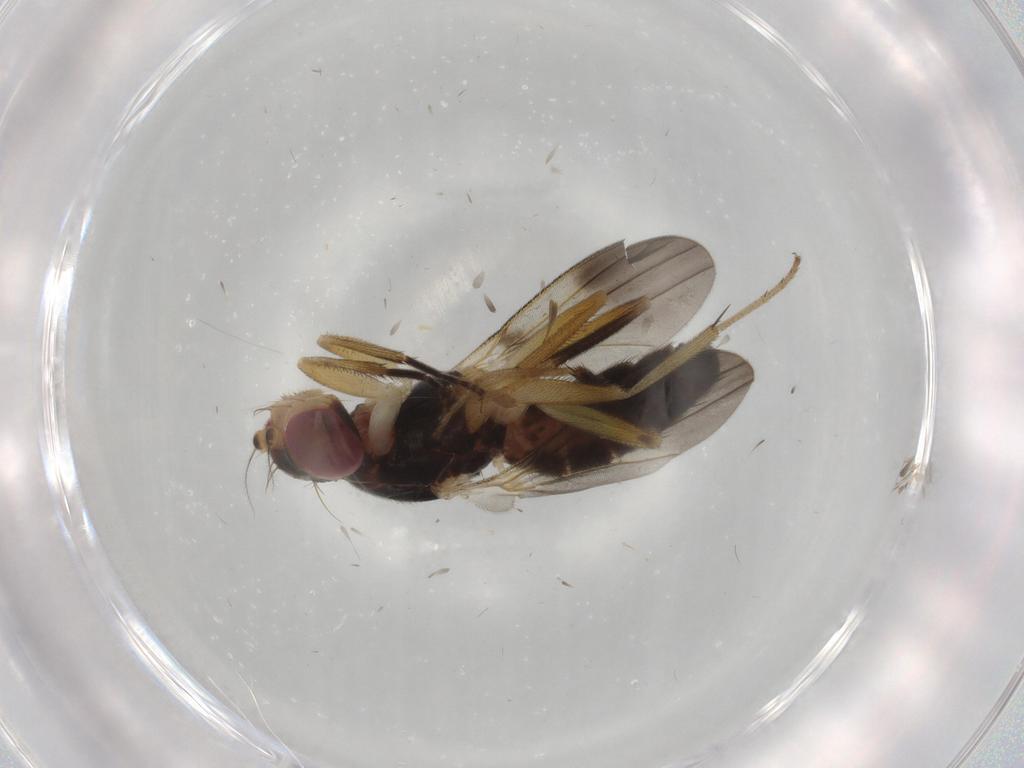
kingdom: Animalia
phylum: Arthropoda
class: Insecta
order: Diptera
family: Clusiidae
